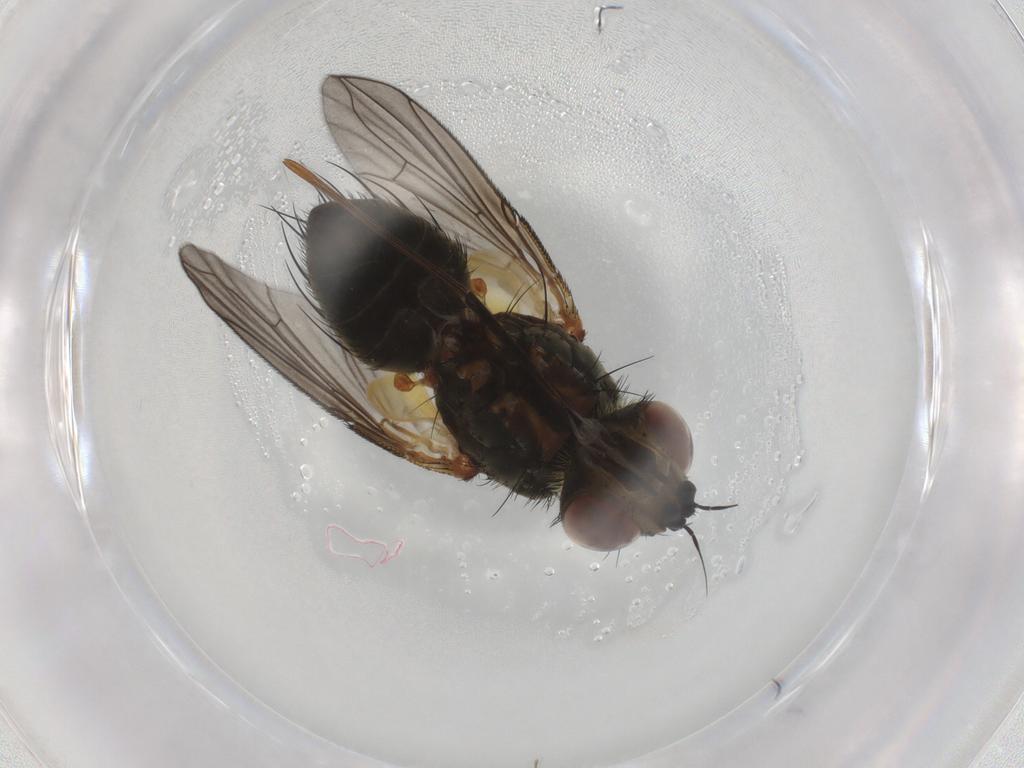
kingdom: Animalia
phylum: Arthropoda
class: Insecta
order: Diptera
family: Tachinidae
